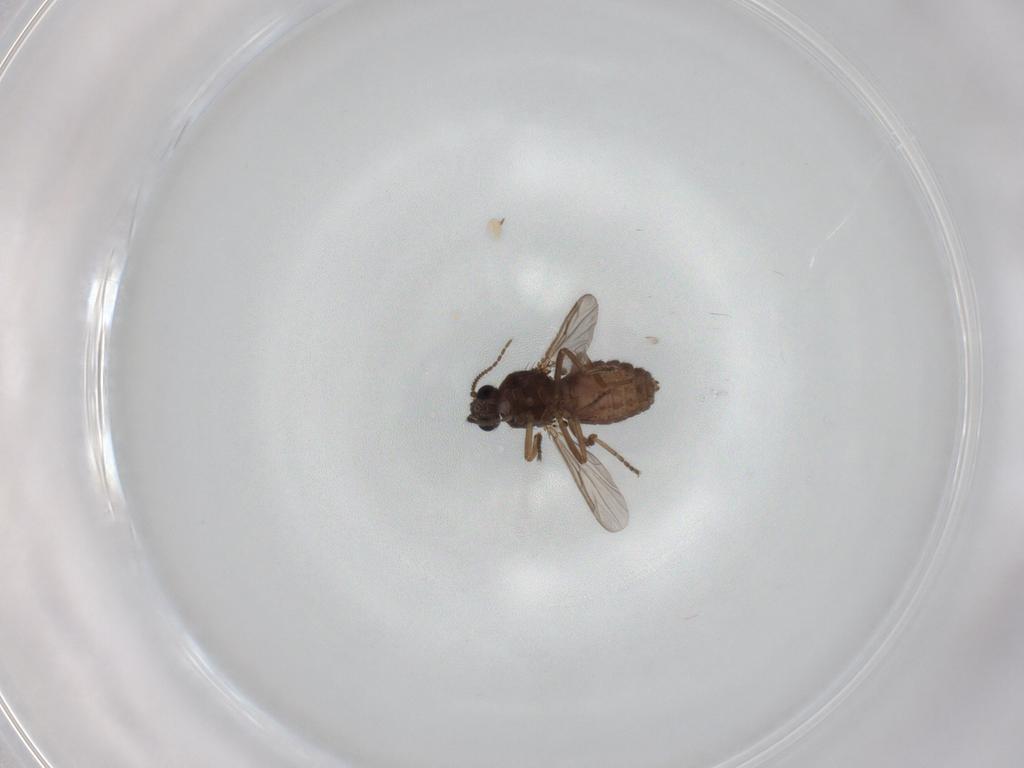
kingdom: Animalia
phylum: Arthropoda
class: Insecta
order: Diptera
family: Ceratopogonidae
